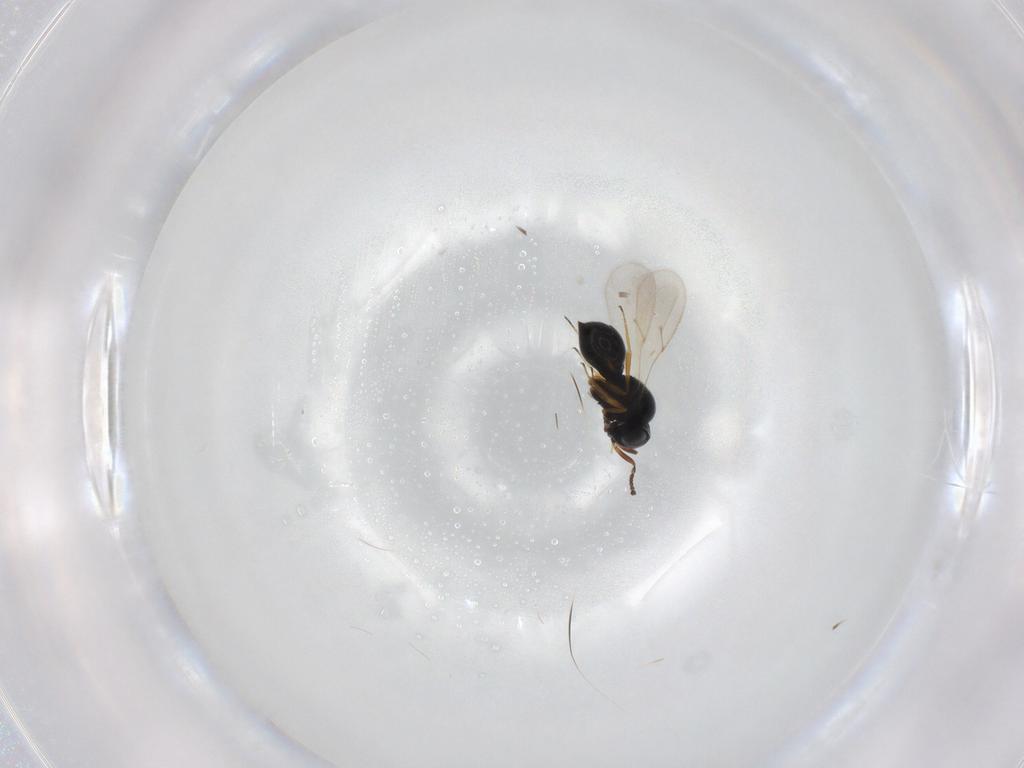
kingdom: Animalia
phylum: Arthropoda
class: Insecta
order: Hymenoptera
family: Scelionidae
